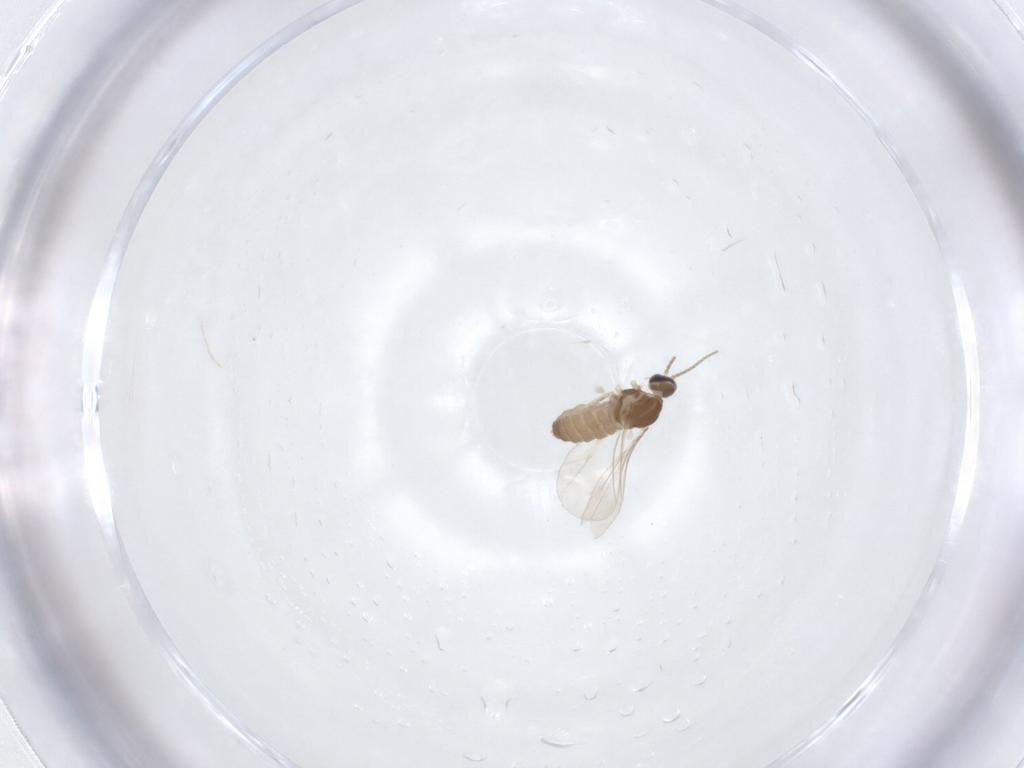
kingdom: Animalia
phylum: Arthropoda
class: Insecta
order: Diptera
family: Cecidomyiidae
